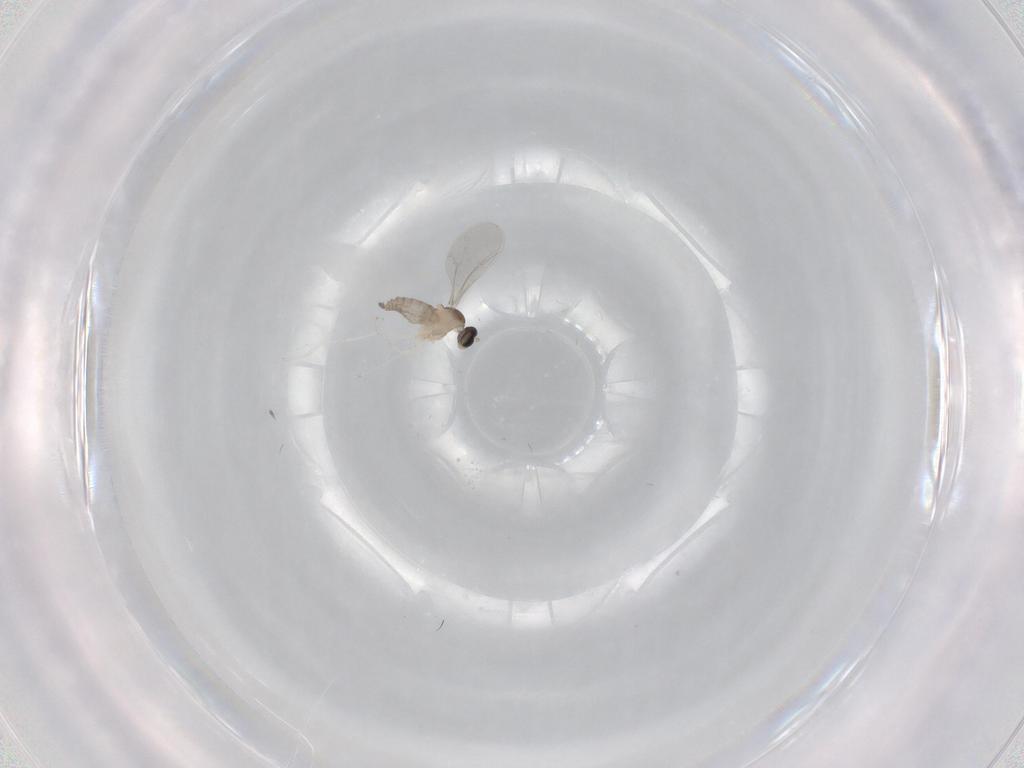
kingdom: Animalia
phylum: Arthropoda
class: Insecta
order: Diptera
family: Cecidomyiidae
